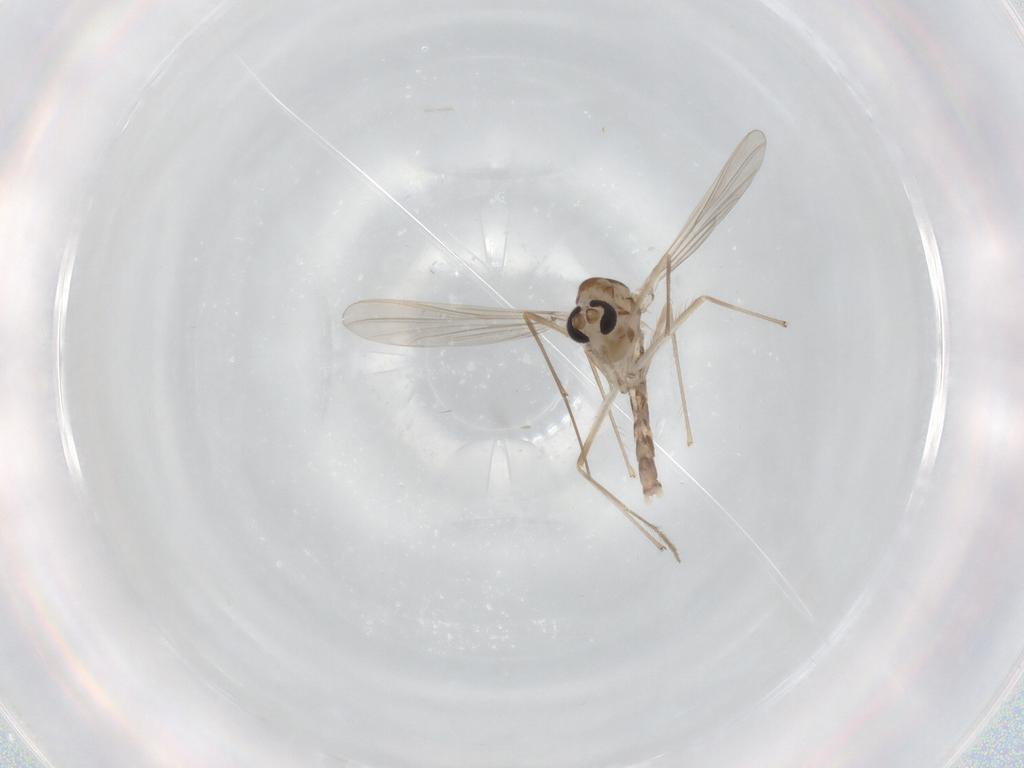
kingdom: Animalia
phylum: Arthropoda
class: Insecta
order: Diptera
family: Chironomidae
